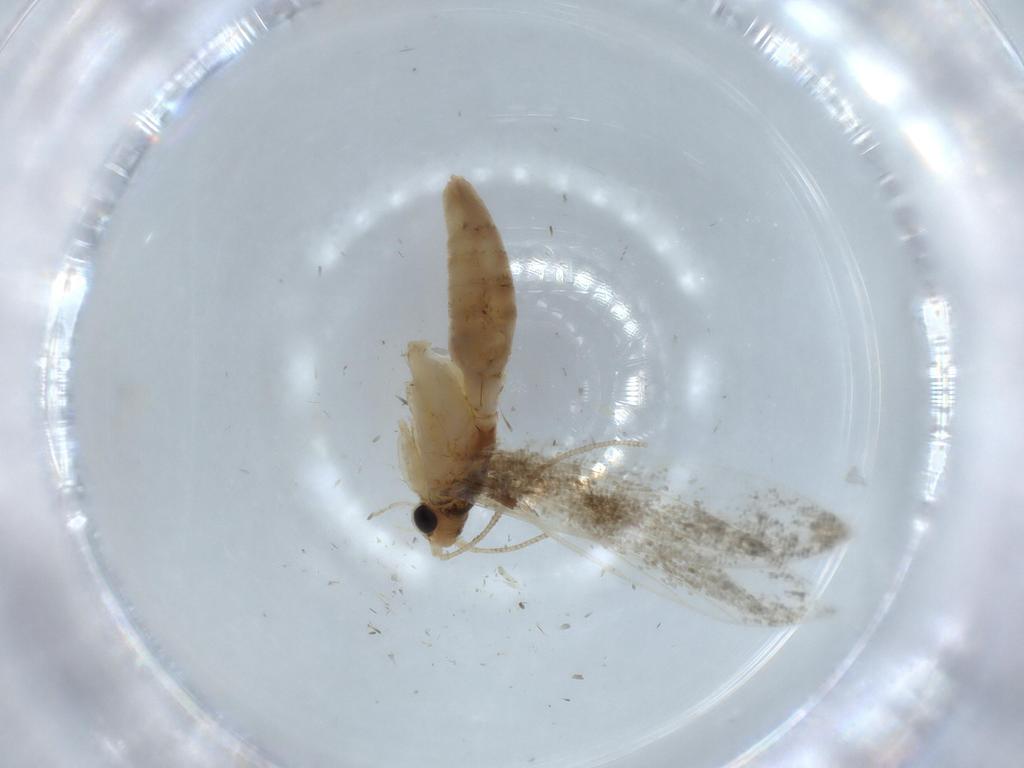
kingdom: Animalia
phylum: Arthropoda
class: Insecta
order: Lepidoptera
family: Meessiidae
